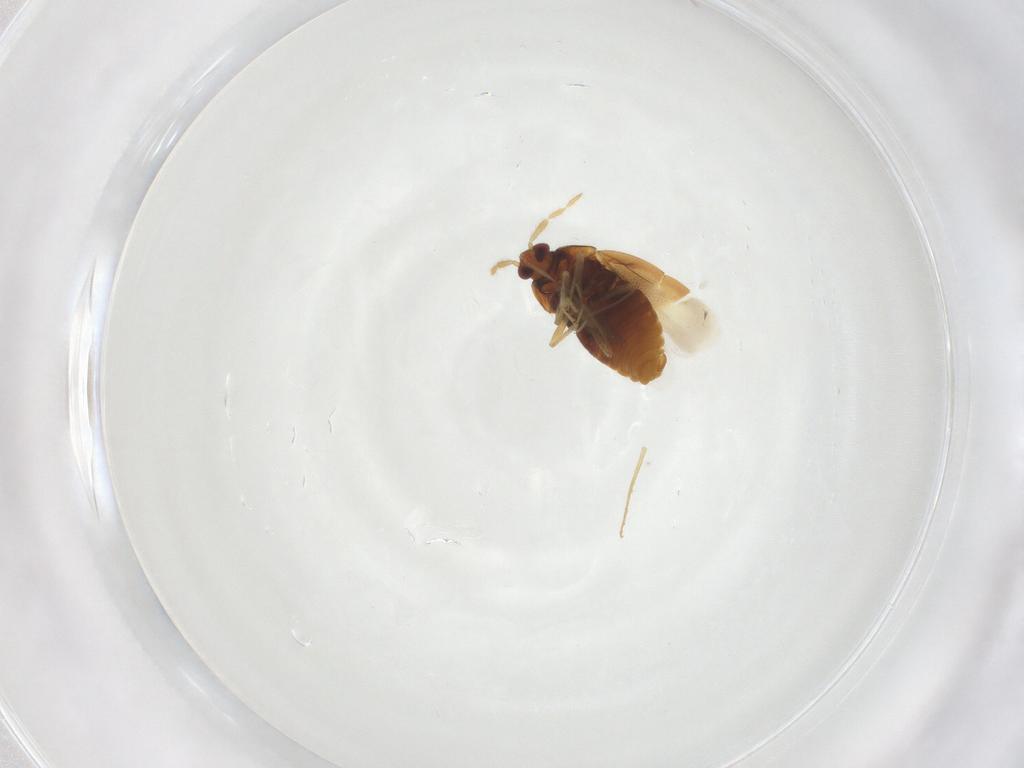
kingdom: Animalia
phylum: Arthropoda
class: Insecta
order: Hemiptera
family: Anthocoridae
